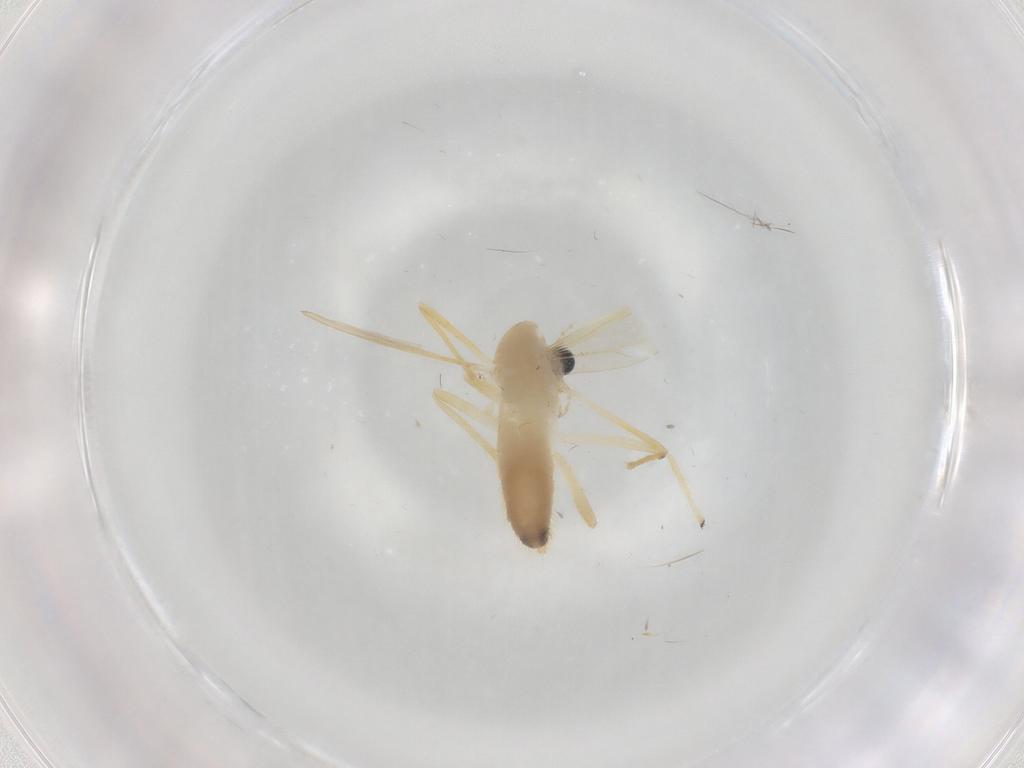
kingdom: Animalia
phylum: Arthropoda
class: Insecta
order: Diptera
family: Chironomidae
